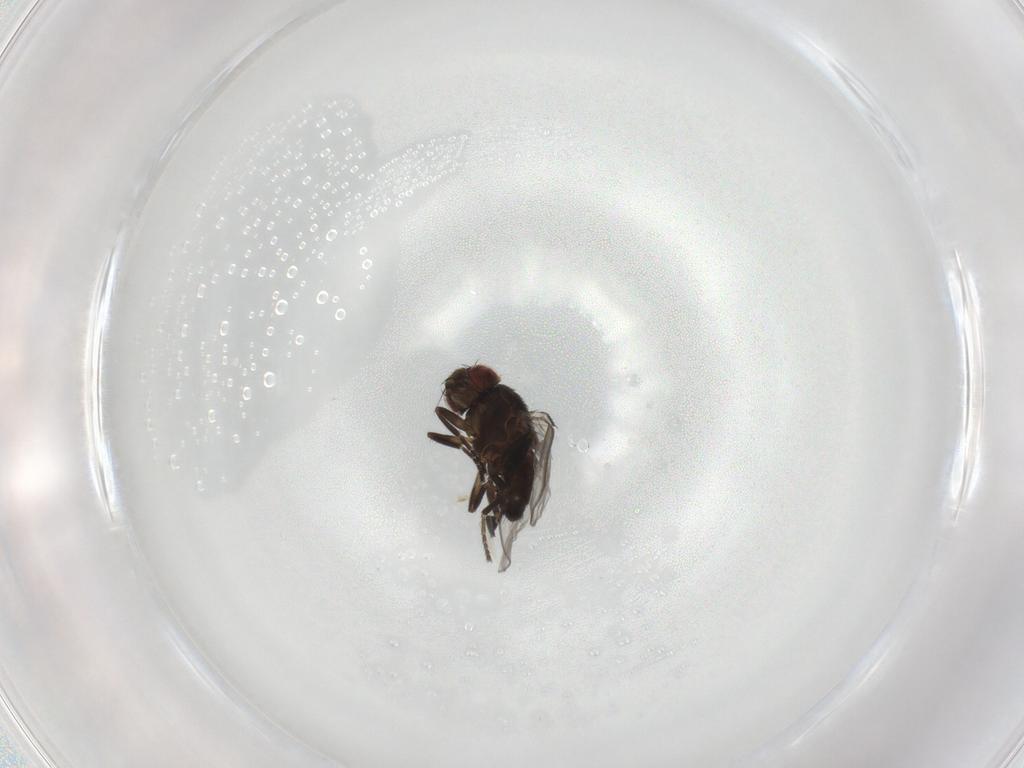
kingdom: Animalia
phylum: Arthropoda
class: Insecta
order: Diptera
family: Milichiidae
